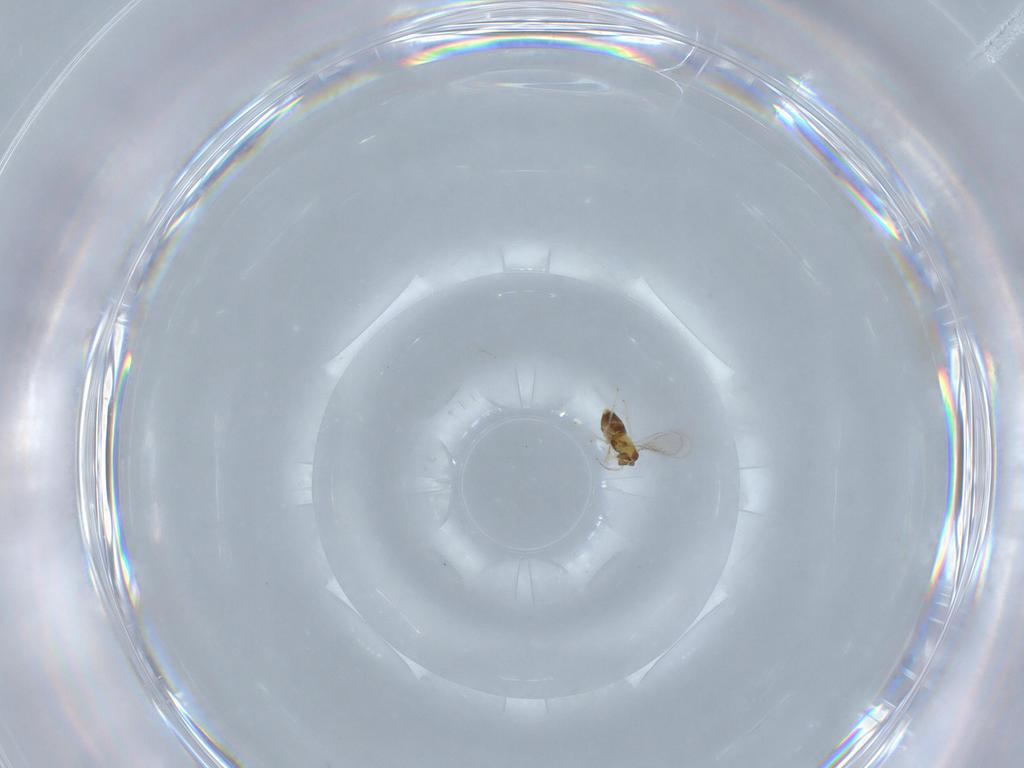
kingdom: Animalia
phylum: Arthropoda
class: Insecta
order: Hymenoptera
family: Aphelinidae
